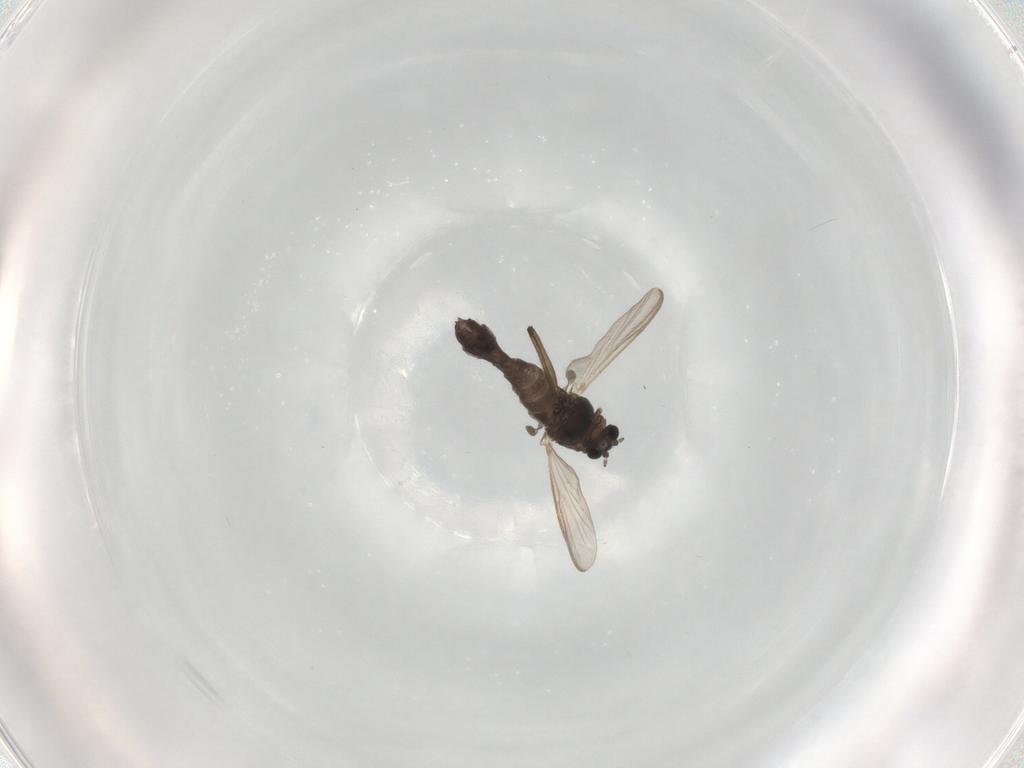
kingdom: Animalia
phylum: Arthropoda
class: Insecta
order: Diptera
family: Chironomidae
